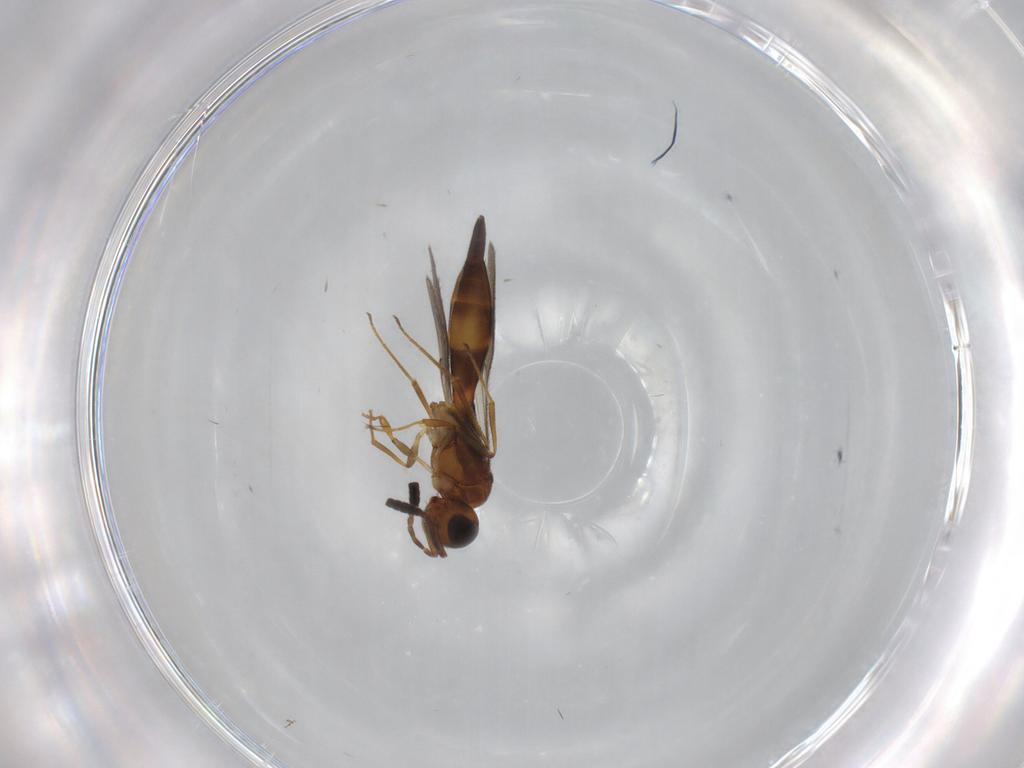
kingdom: Animalia
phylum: Arthropoda
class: Insecta
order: Hymenoptera
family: Scelionidae
